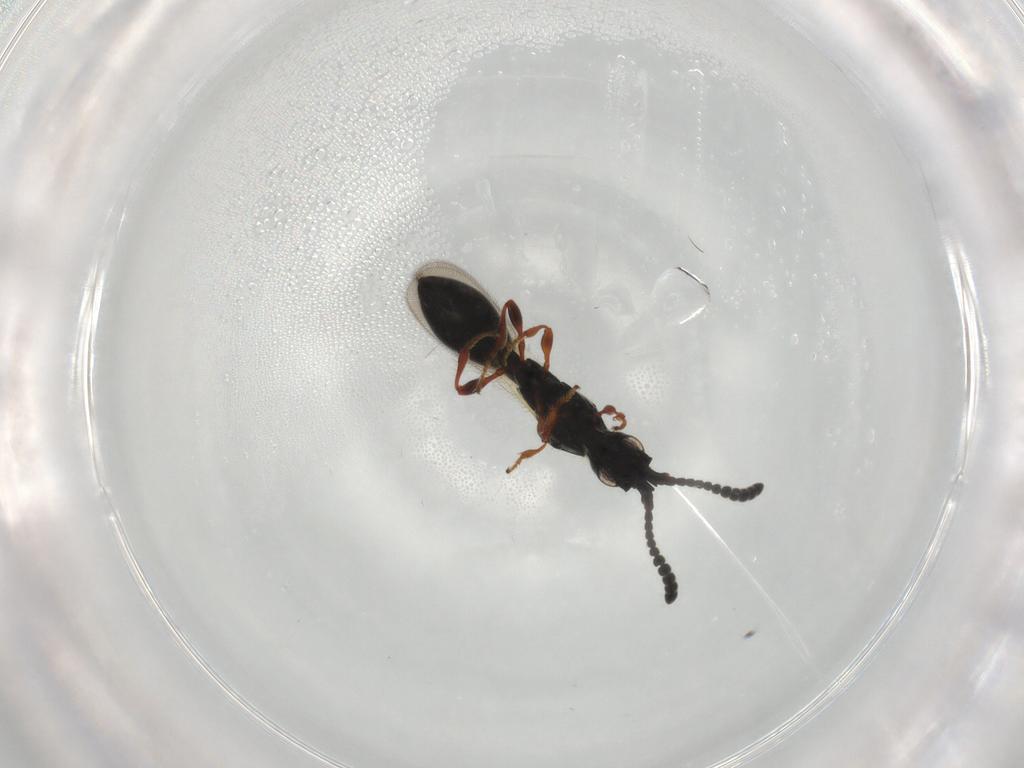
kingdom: Animalia
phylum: Arthropoda
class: Insecta
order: Hymenoptera
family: Diapriidae
